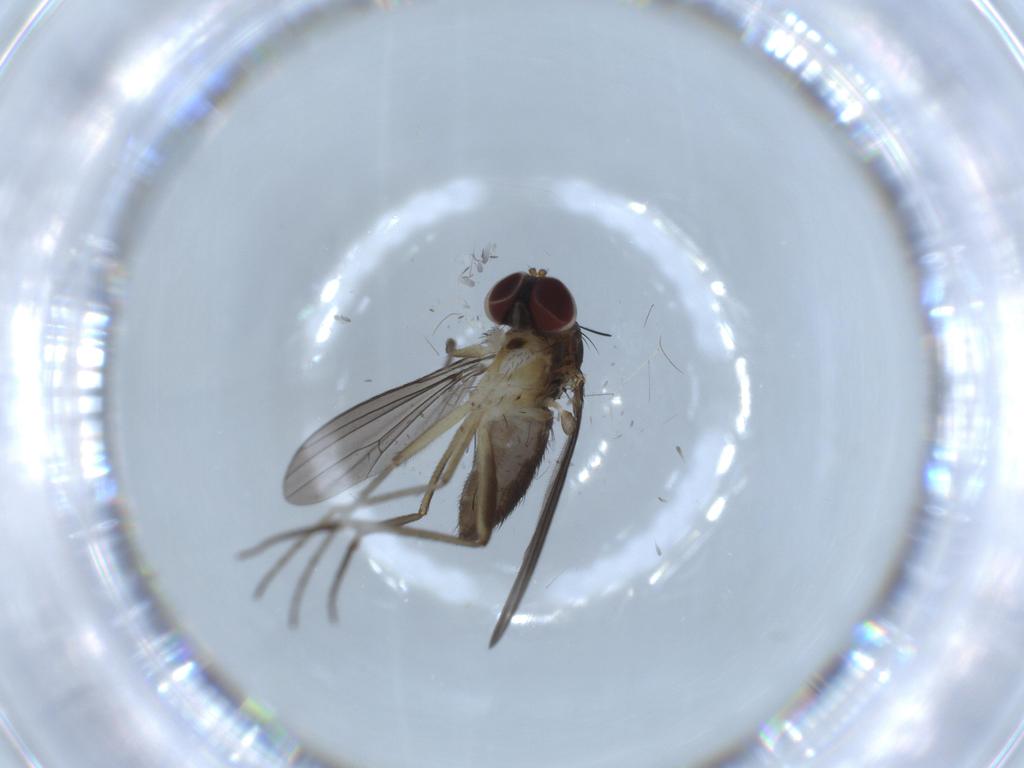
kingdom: Animalia
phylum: Arthropoda
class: Insecta
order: Diptera
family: Dolichopodidae
